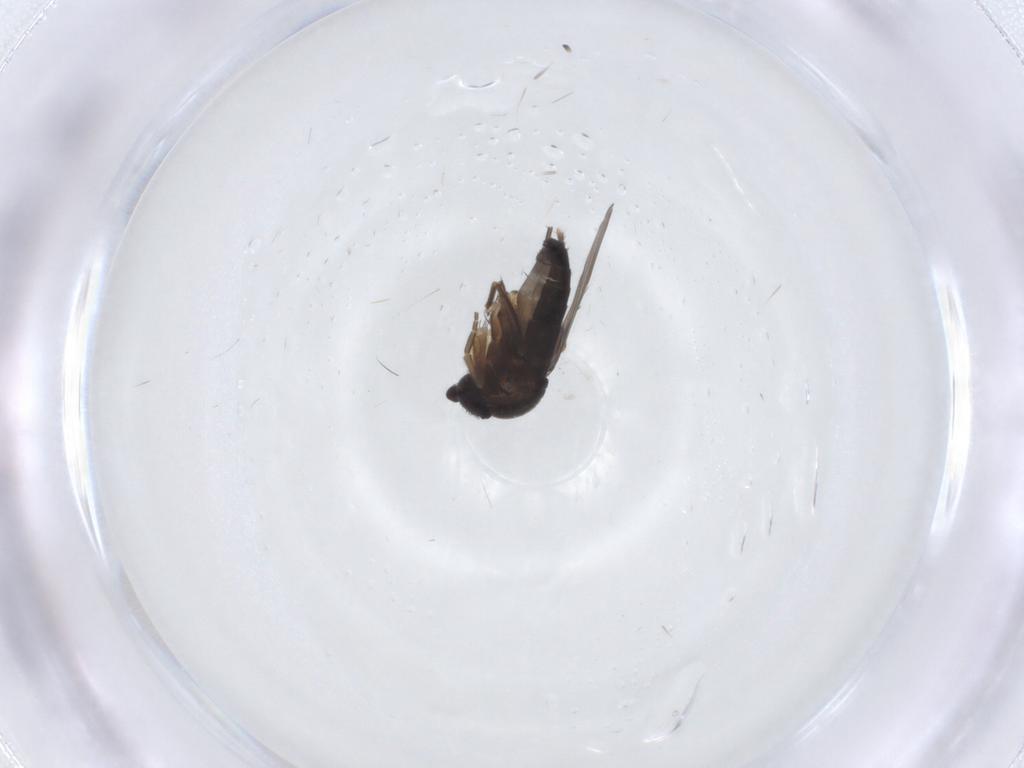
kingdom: Animalia
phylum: Arthropoda
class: Insecta
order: Diptera
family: Phoridae
